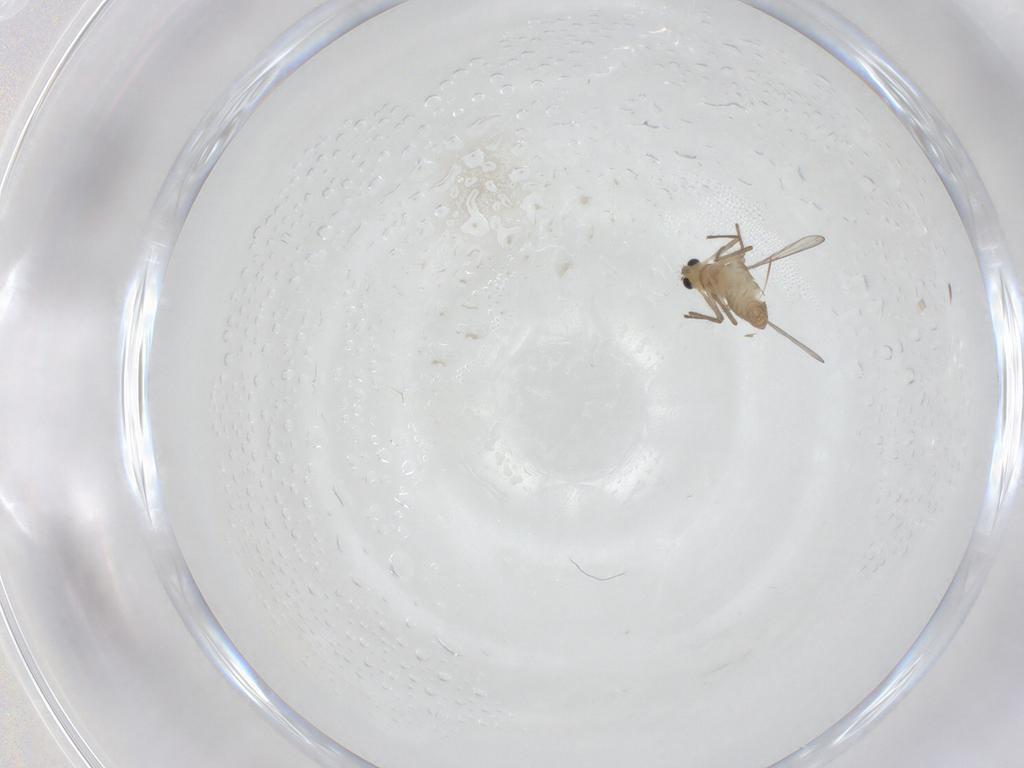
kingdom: Animalia
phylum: Arthropoda
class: Insecta
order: Diptera
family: Chironomidae
